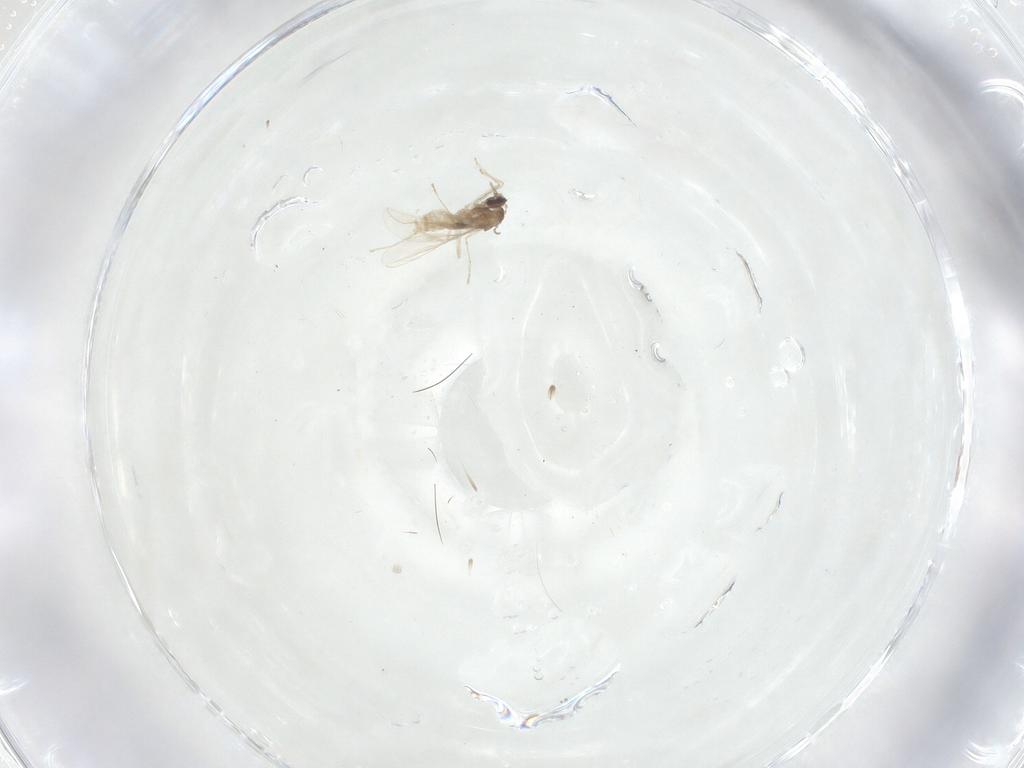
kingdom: Animalia
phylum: Arthropoda
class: Insecta
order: Diptera
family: Cecidomyiidae
